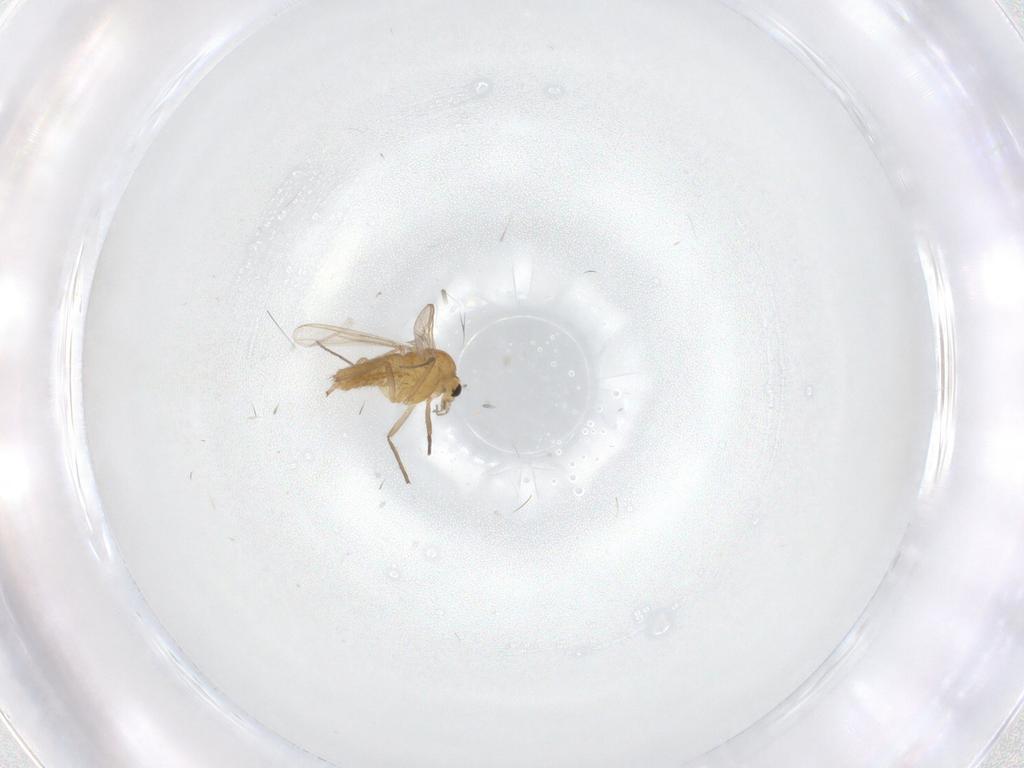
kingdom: Animalia
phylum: Arthropoda
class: Insecta
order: Diptera
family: Chironomidae
